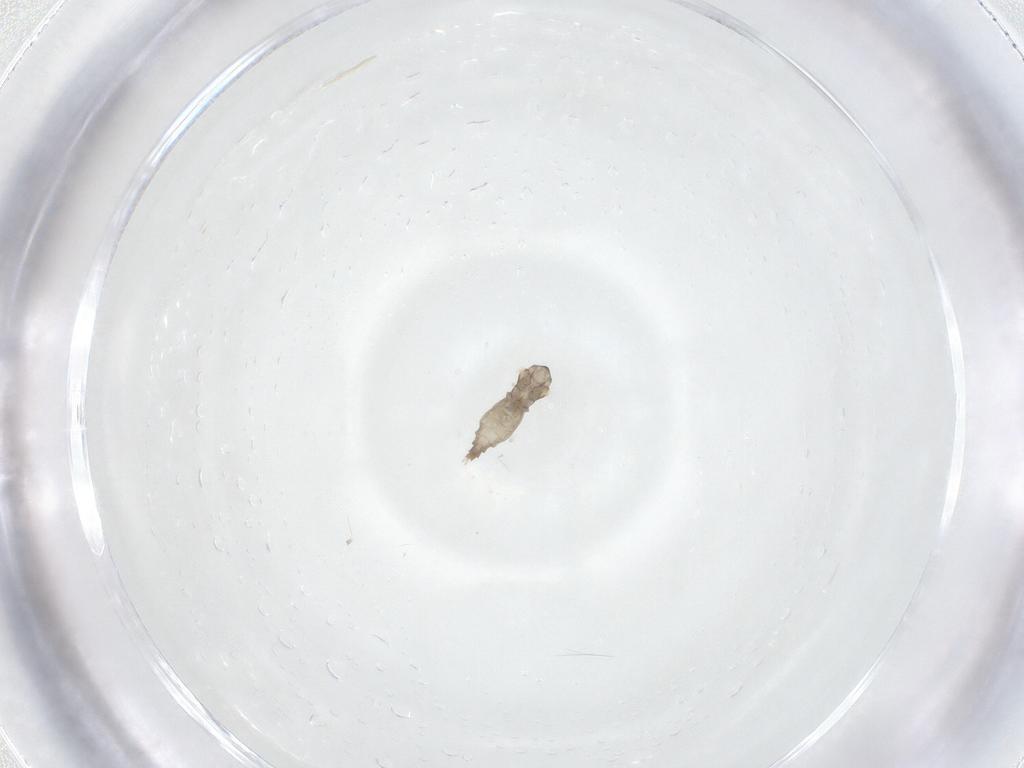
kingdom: Animalia
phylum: Arthropoda
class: Insecta
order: Diptera
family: Cecidomyiidae
